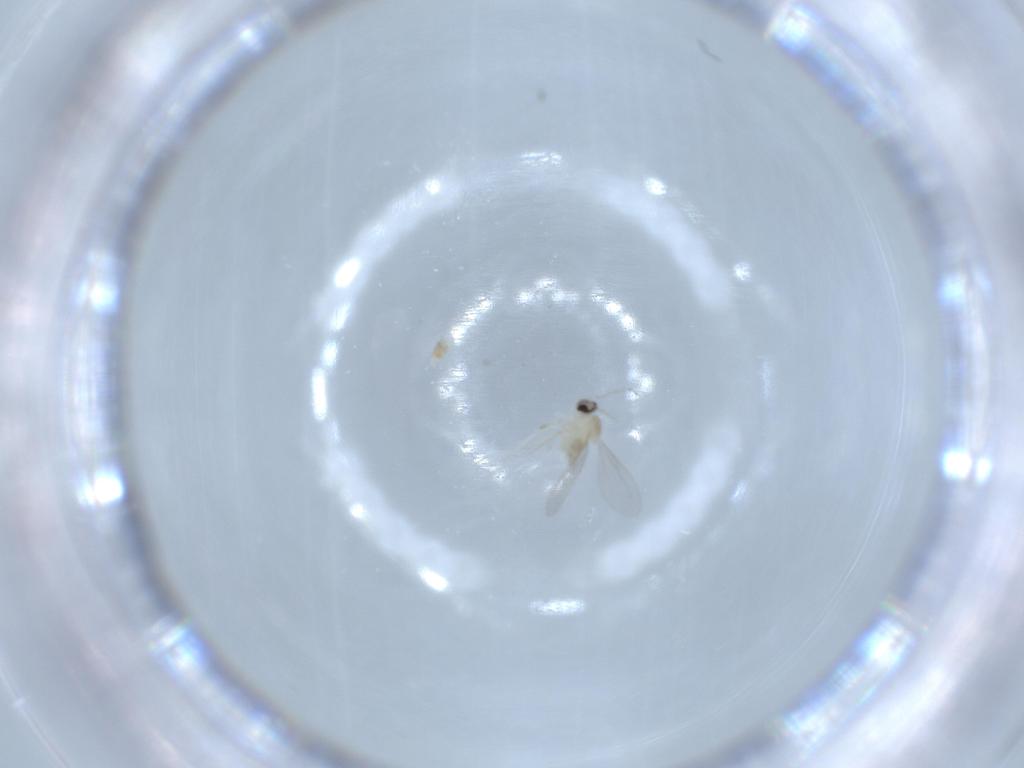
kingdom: Animalia
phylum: Arthropoda
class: Insecta
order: Diptera
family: Cecidomyiidae
